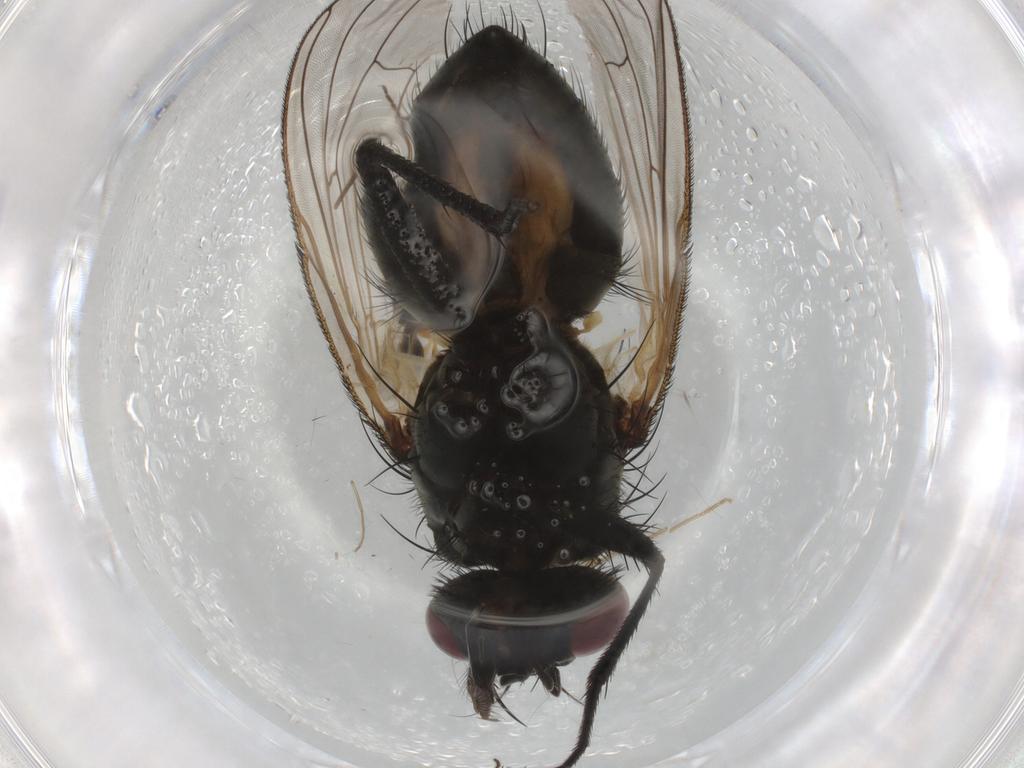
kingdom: Animalia
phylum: Arthropoda
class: Insecta
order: Diptera
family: Muscidae
